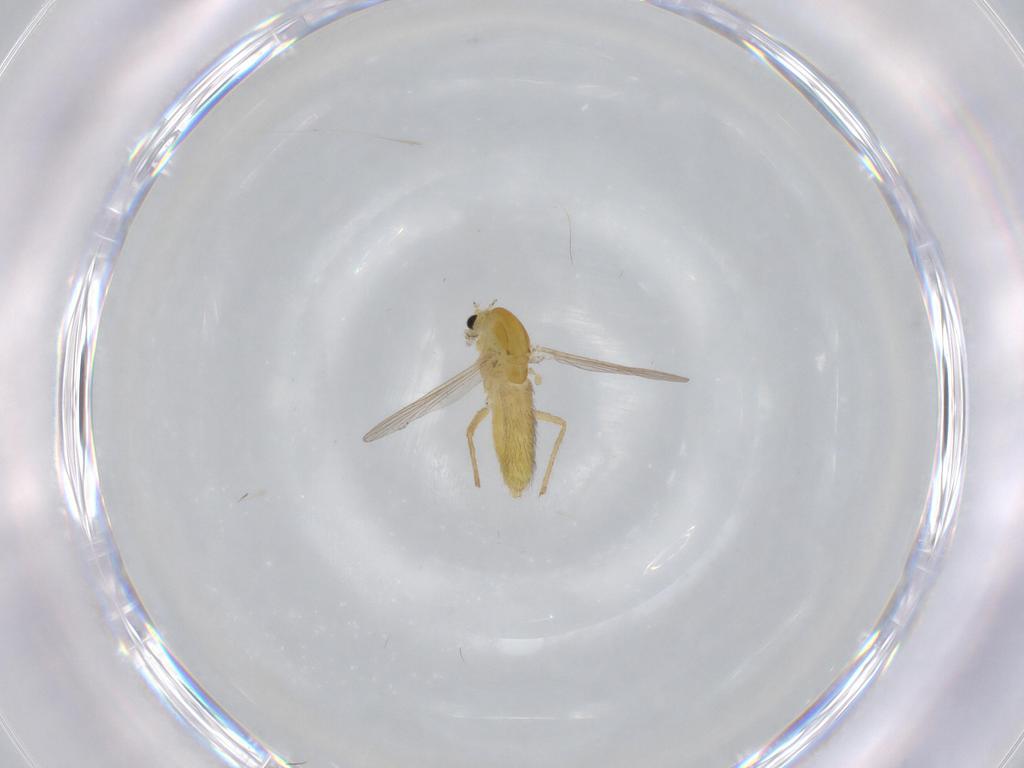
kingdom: Animalia
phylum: Arthropoda
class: Insecta
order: Diptera
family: Chironomidae
